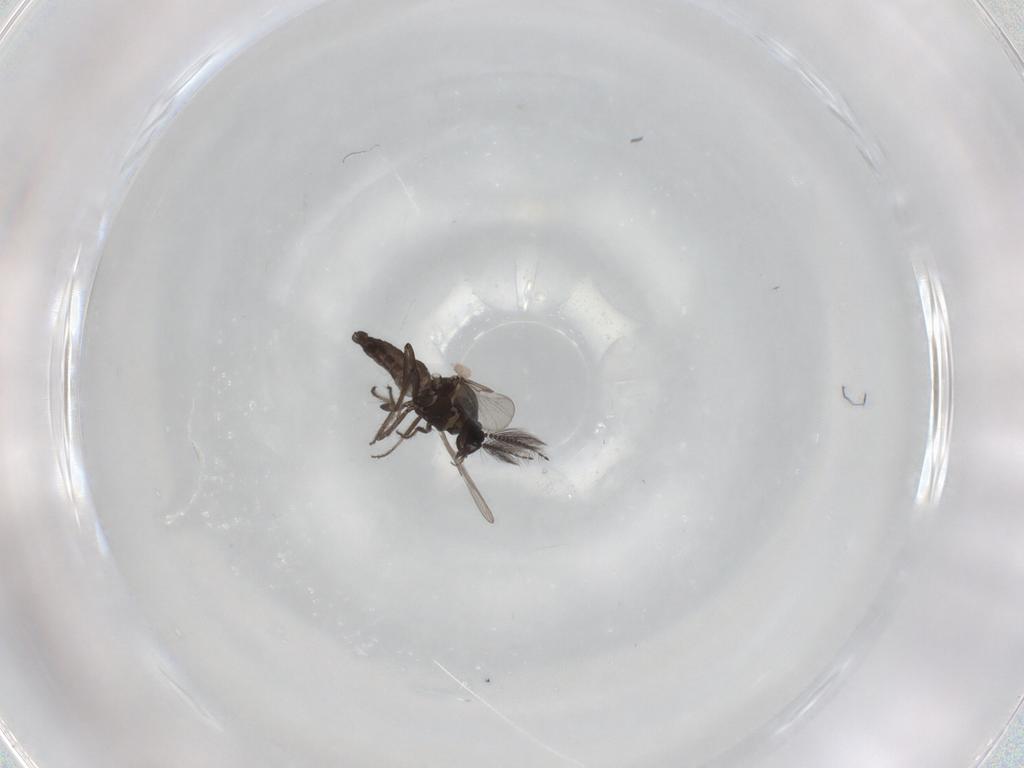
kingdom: Animalia
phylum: Arthropoda
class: Insecta
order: Diptera
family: Ceratopogonidae
